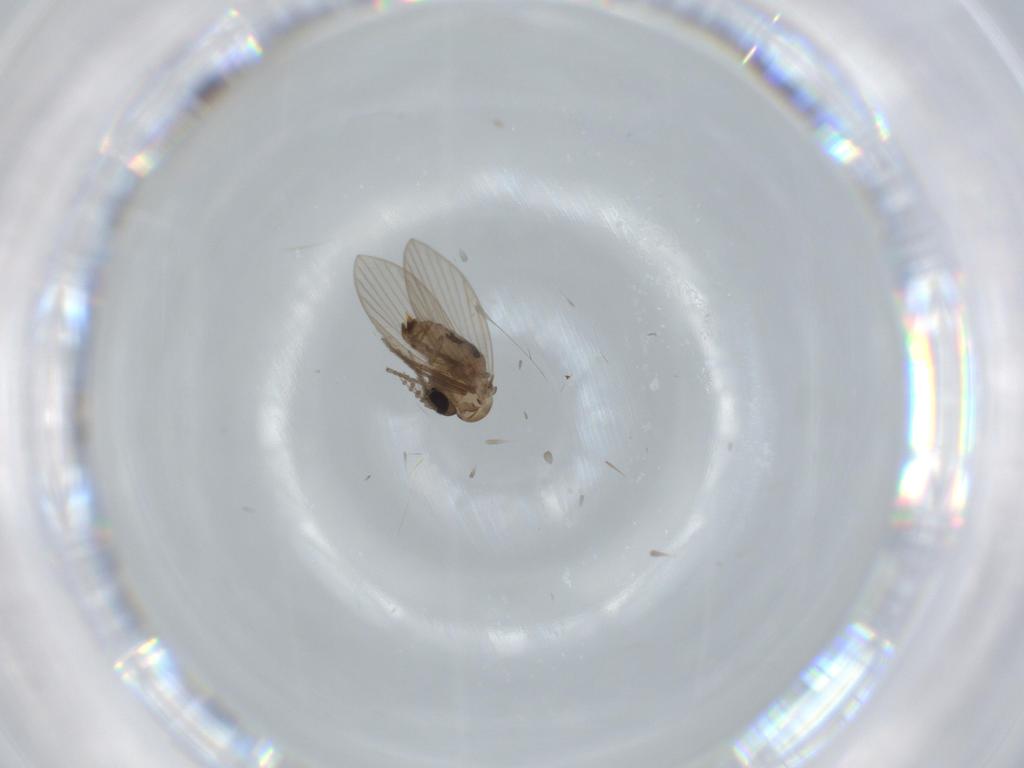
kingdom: Animalia
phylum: Arthropoda
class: Insecta
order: Diptera
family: Psychodidae
